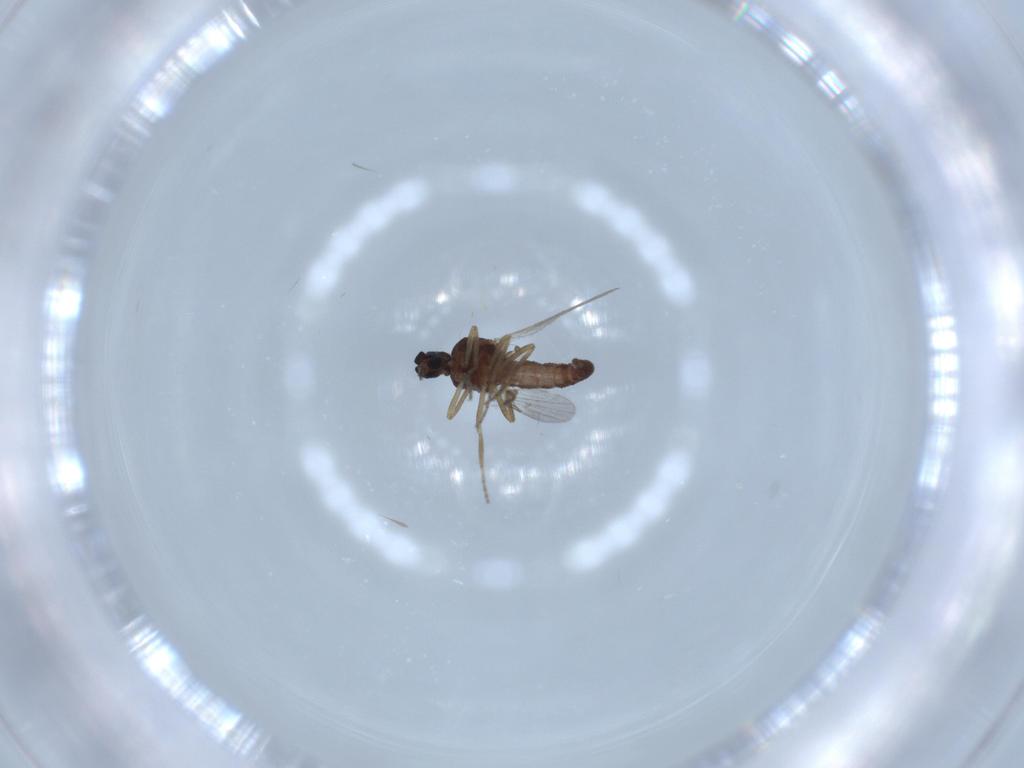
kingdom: Animalia
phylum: Arthropoda
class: Insecta
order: Diptera
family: Ceratopogonidae
